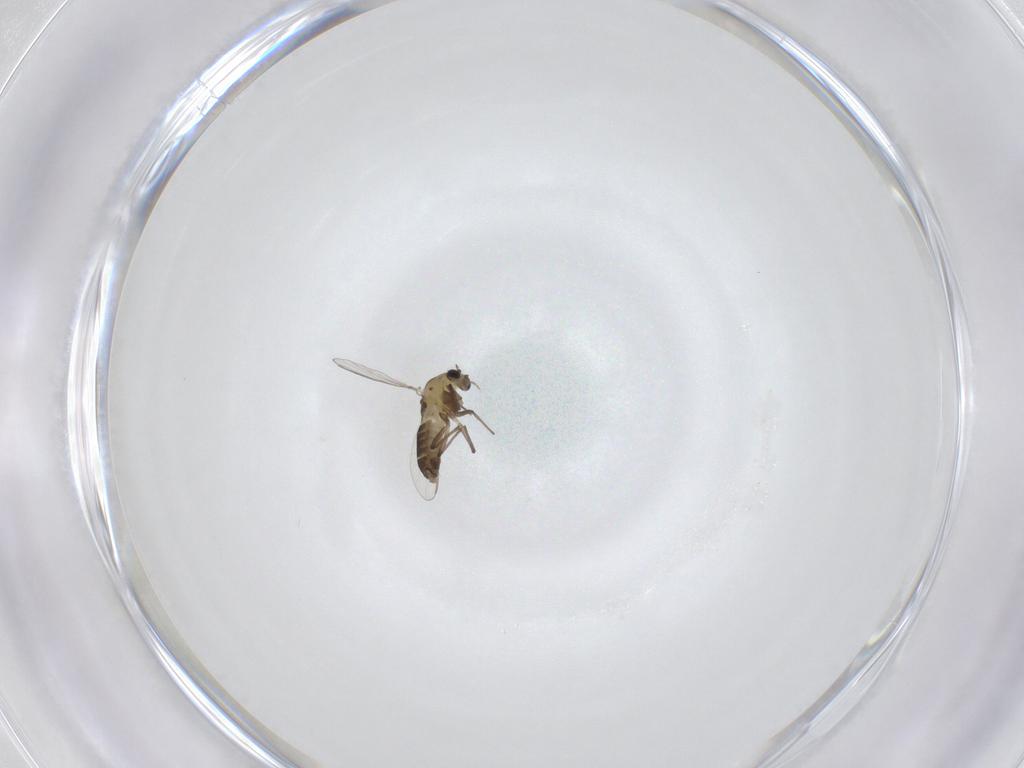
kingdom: Animalia
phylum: Arthropoda
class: Insecta
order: Diptera
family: Chironomidae
